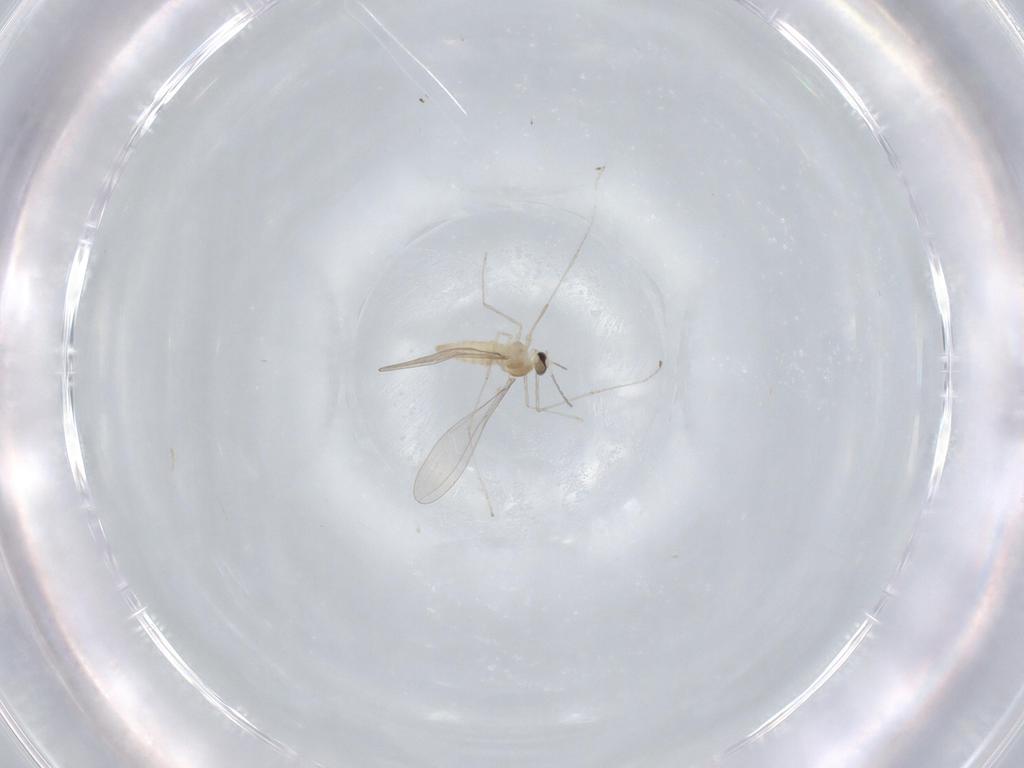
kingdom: Animalia
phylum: Arthropoda
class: Insecta
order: Diptera
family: Cecidomyiidae
